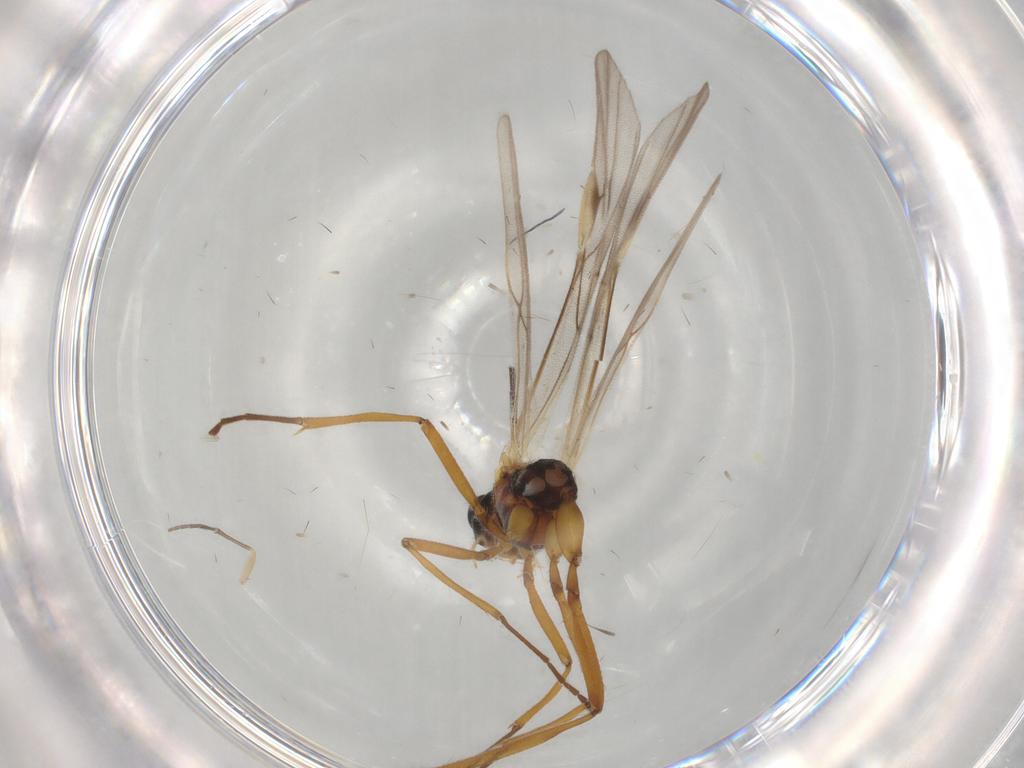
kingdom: Animalia
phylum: Arthropoda
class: Insecta
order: Hymenoptera
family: Braconidae
